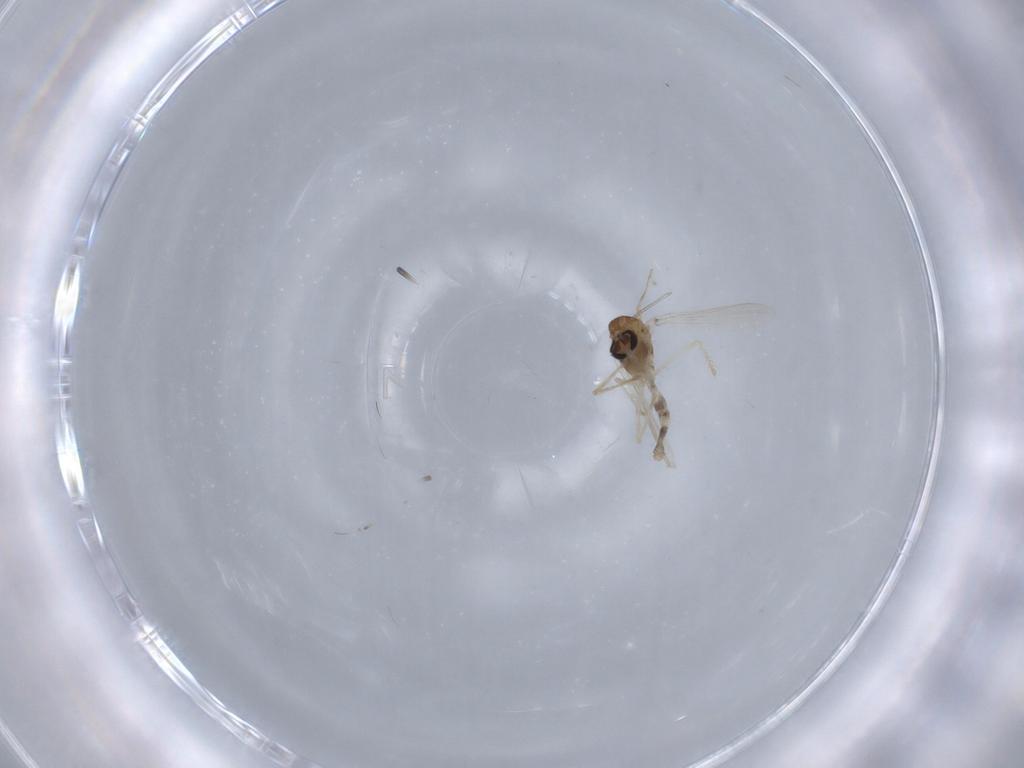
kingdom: Animalia
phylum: Arthropoda
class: Insecta
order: Diptera
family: Chironomidae
